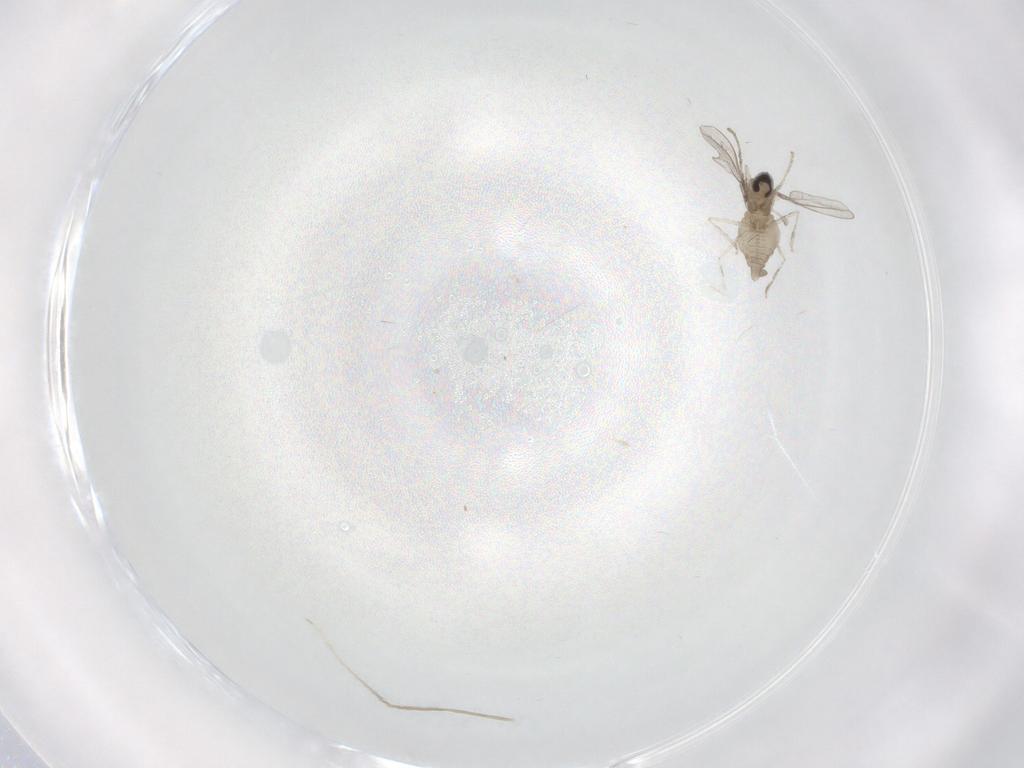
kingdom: Animalia
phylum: Arthropoda
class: Insecta
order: Diptera
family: Cecidomyiidae
